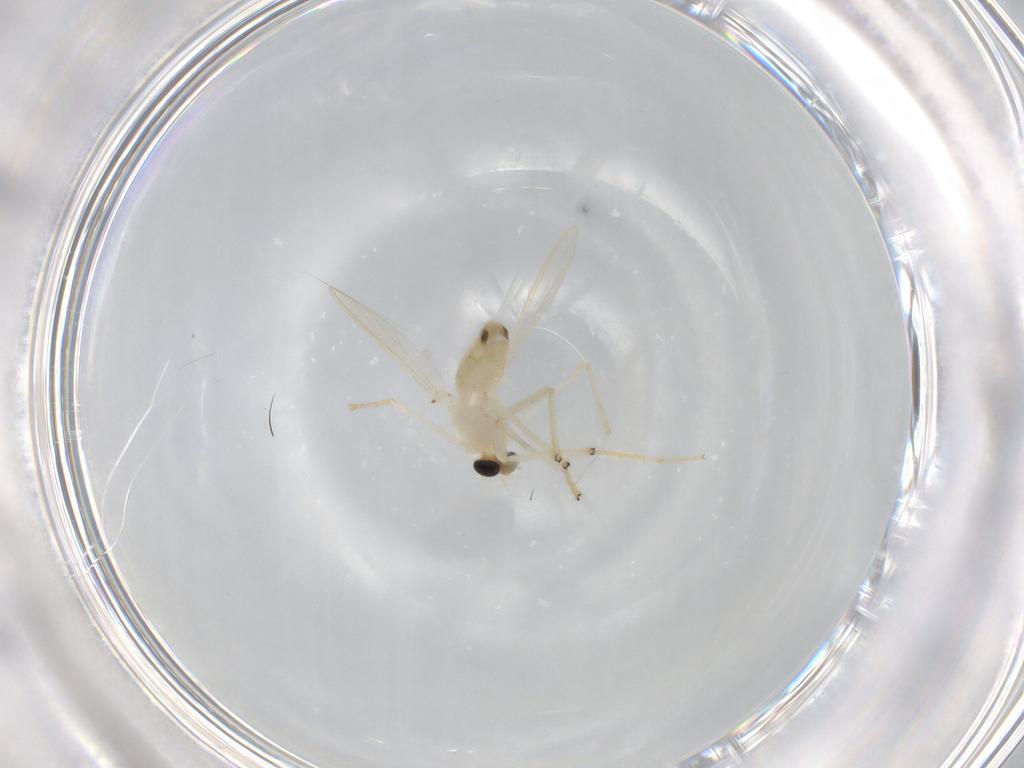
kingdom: Animalia
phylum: Arthropoda
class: Insecta
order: Diptera
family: Chironomidae
